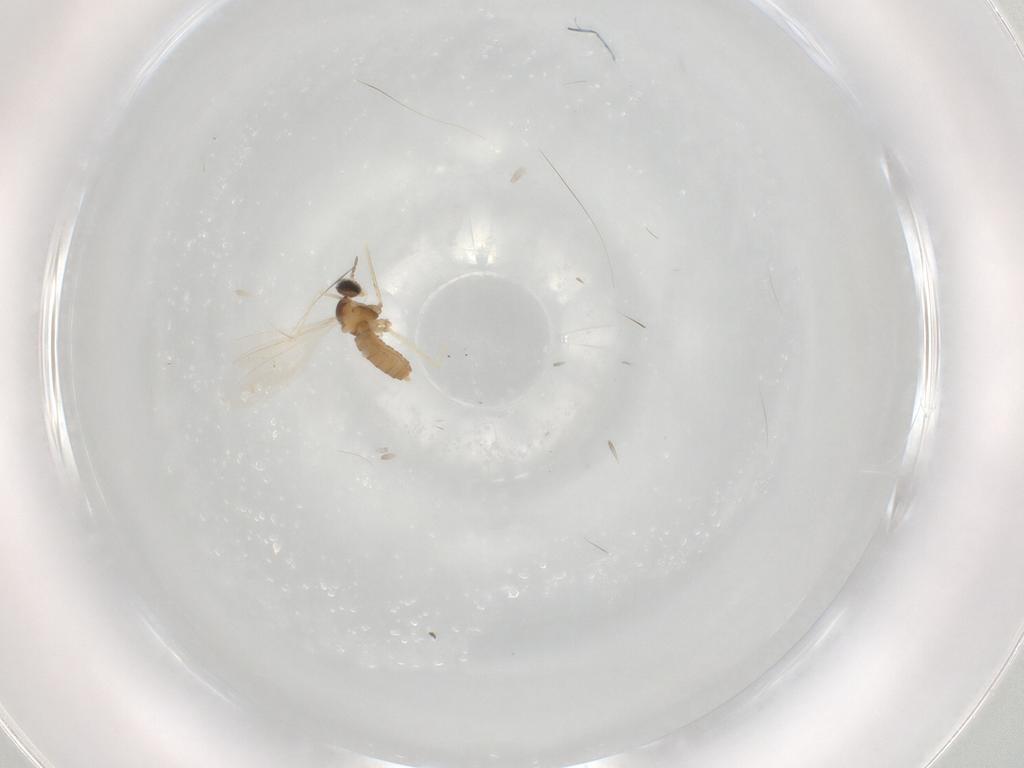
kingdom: Animalia
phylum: Arthropoda
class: Insecta
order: Diptera
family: Cecidomyiidae
